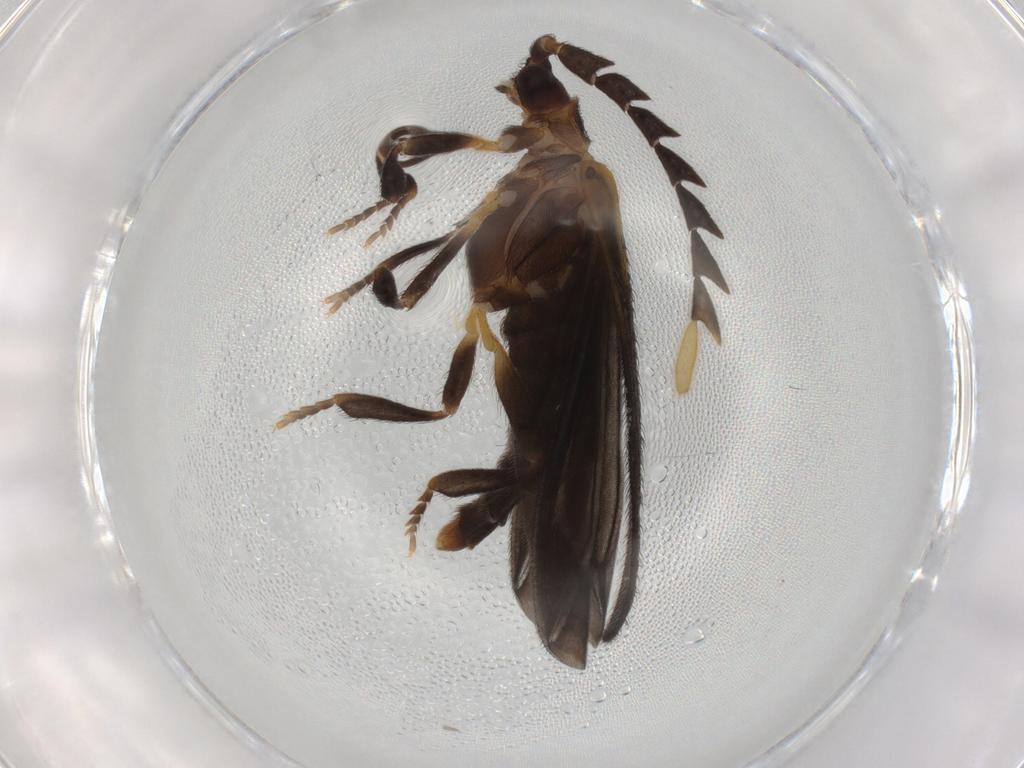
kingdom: Animalia
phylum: Arthropoda
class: Insecta
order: Coleoptera
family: Lycidae
